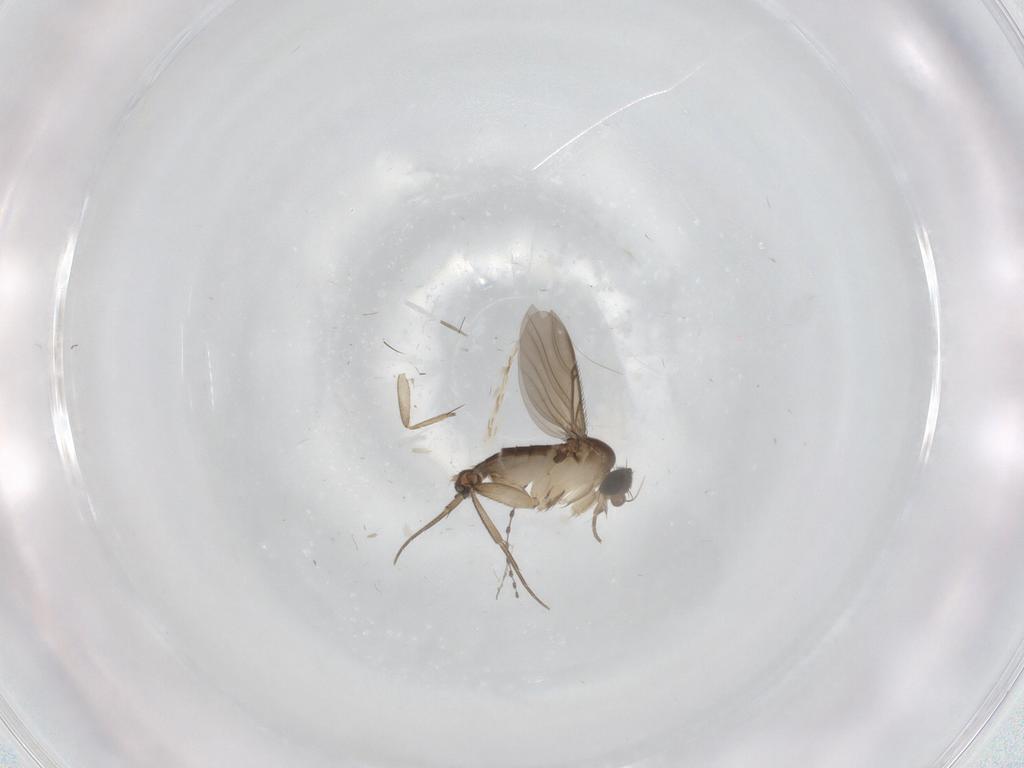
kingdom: Animalia
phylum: Arthropoda
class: Insecta
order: Diptera
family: Phoridae
